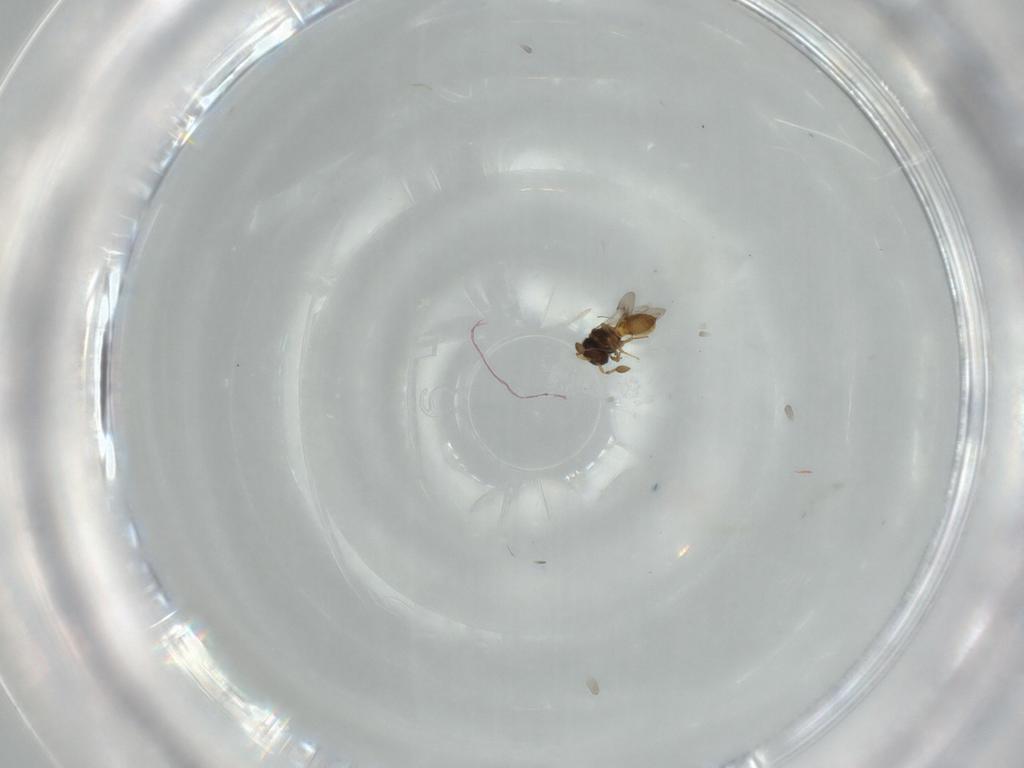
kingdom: Animalia
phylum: Arthropoda
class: Insecta
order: Hymenoptera
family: Scelionidae
